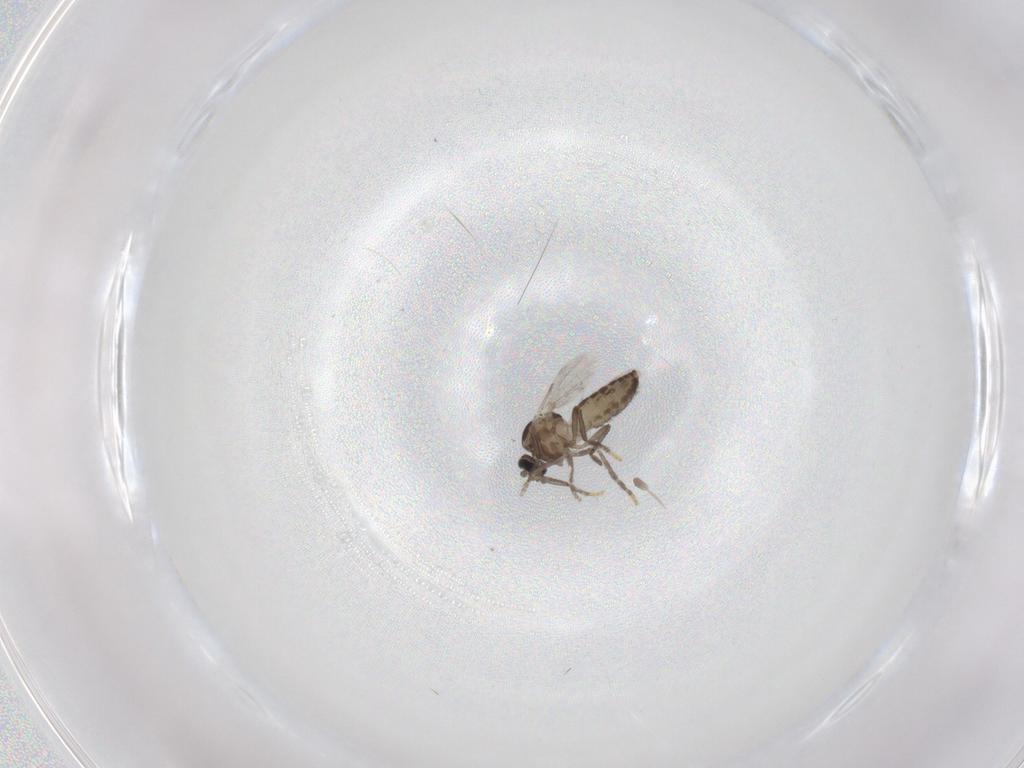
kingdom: Animalia
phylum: Arthropoda
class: Insecta
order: Diptera
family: Ceratopogonidae
